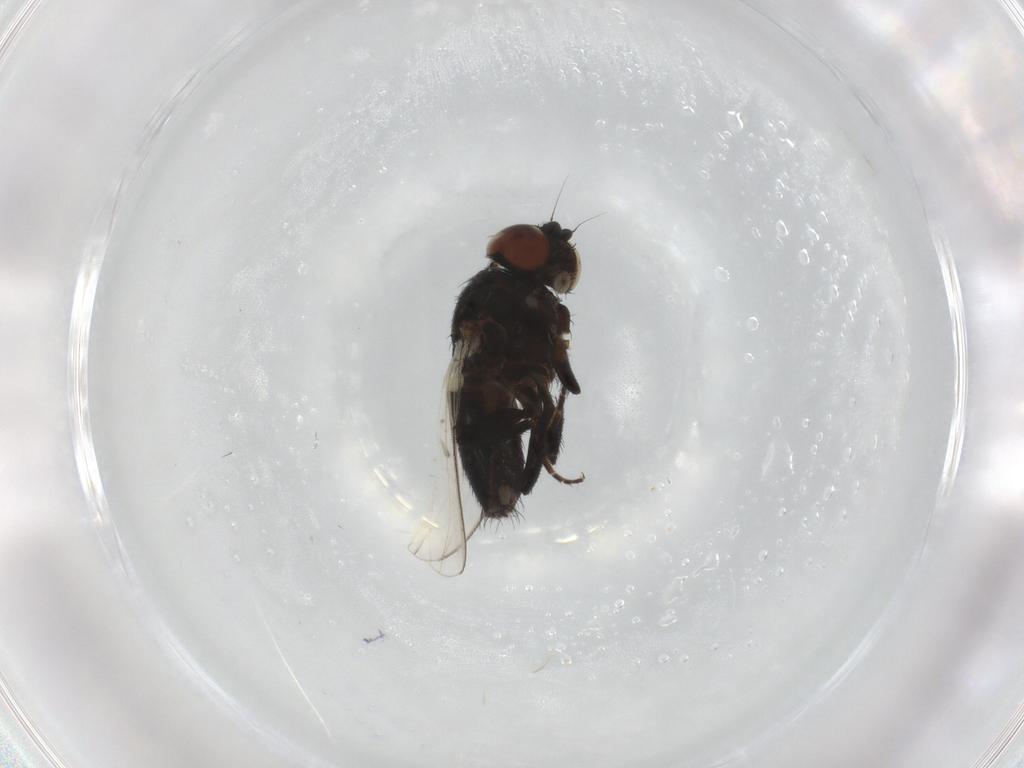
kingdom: Animalia
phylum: Arthropoda
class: Insecta
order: Diptera
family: Milichiidae
